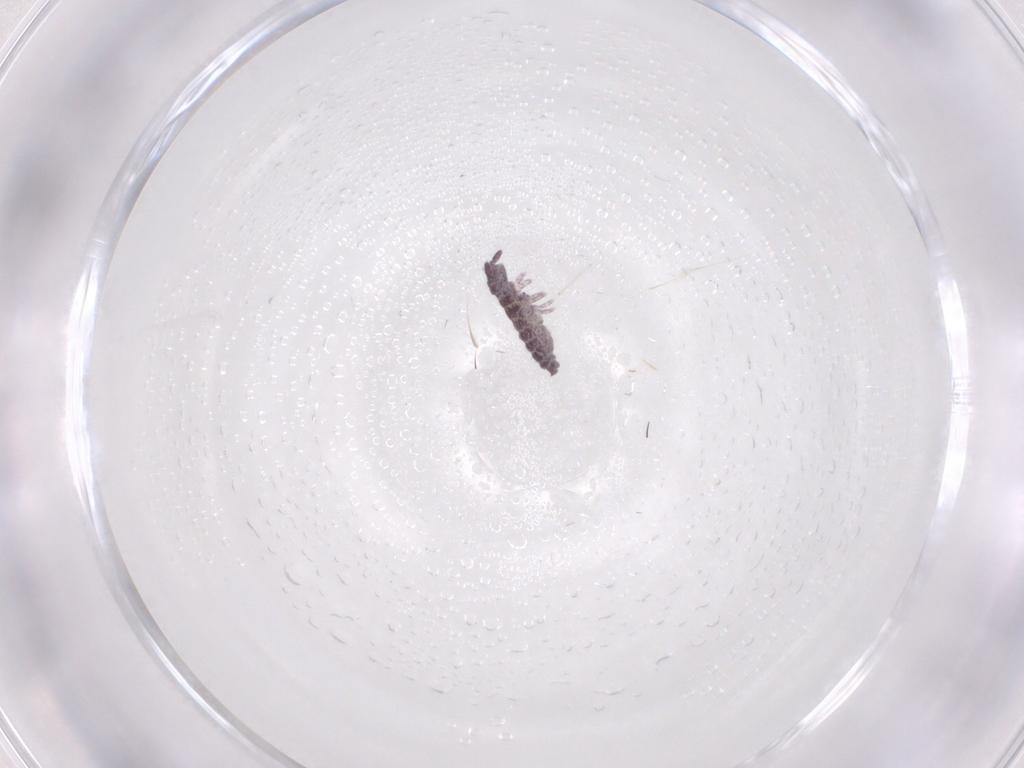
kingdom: Animalia
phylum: Arthropoda
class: Collembola
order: Poduromorpha
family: Hypogastruridae
